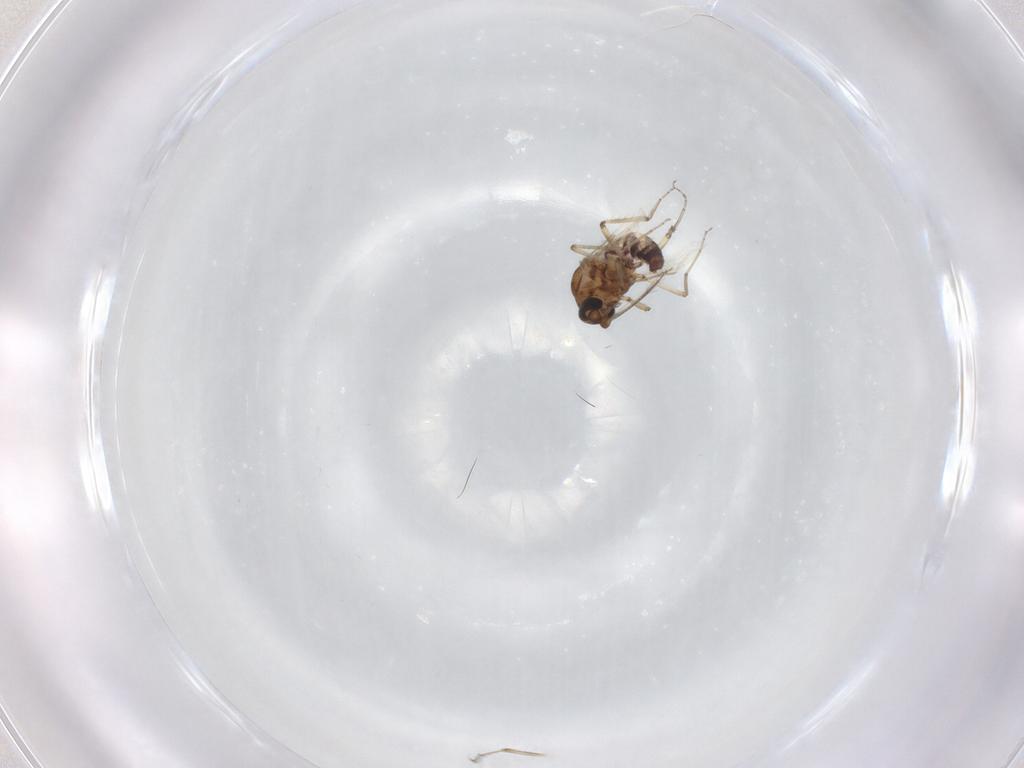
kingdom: Animalia
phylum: Arthropoda
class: Insecta
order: Diptera
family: Ceratopogonidae
